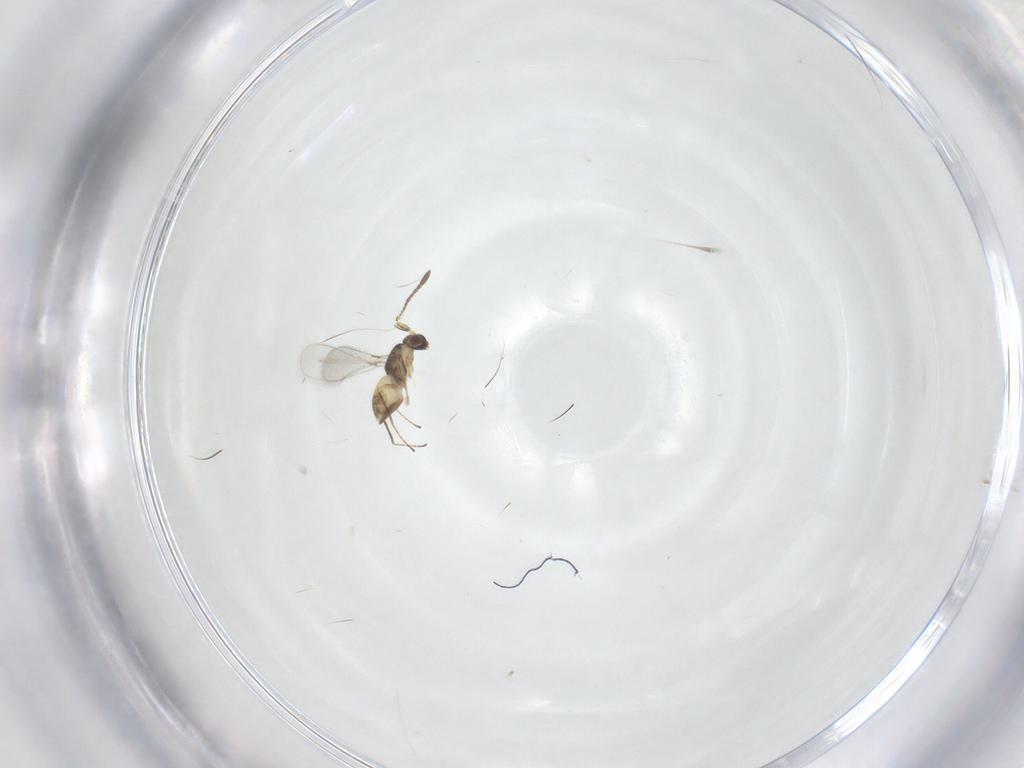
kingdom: Animalia
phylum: Arthropoda
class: Insecta
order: Hymenoptera
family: Mymaridae
